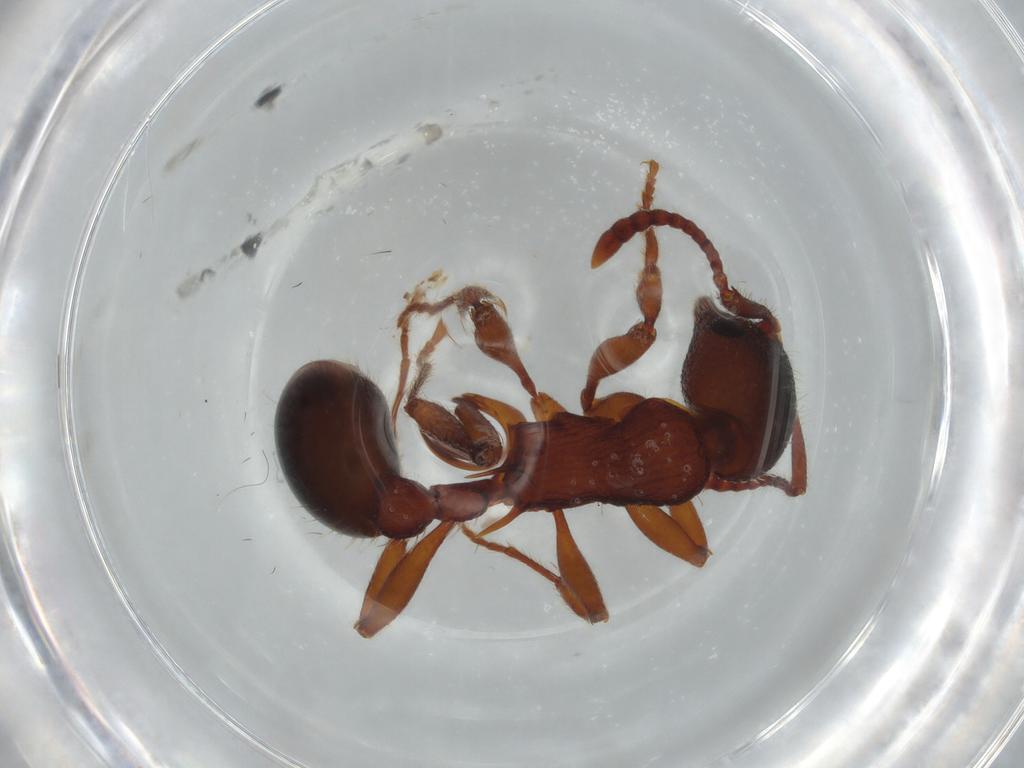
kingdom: Animalia
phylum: Arthropoda
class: Insecta
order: Hymenoptera
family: Formicidae
